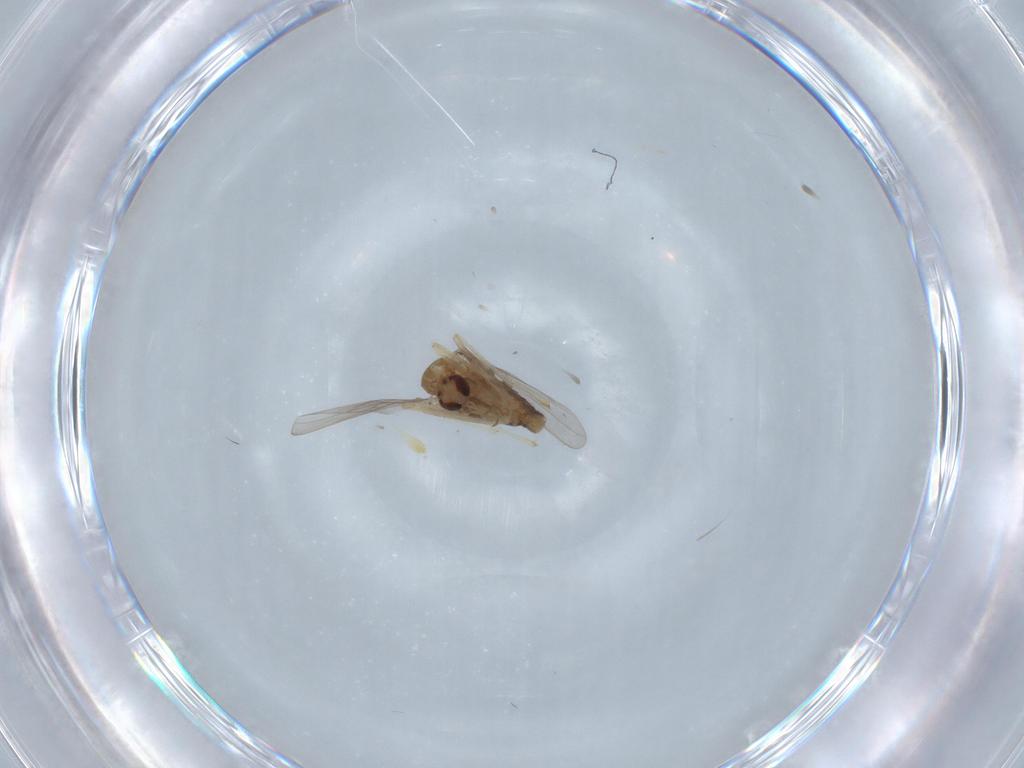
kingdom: Animalia
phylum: Arthropoda
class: Insecta
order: Diptera
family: Chironomidae
